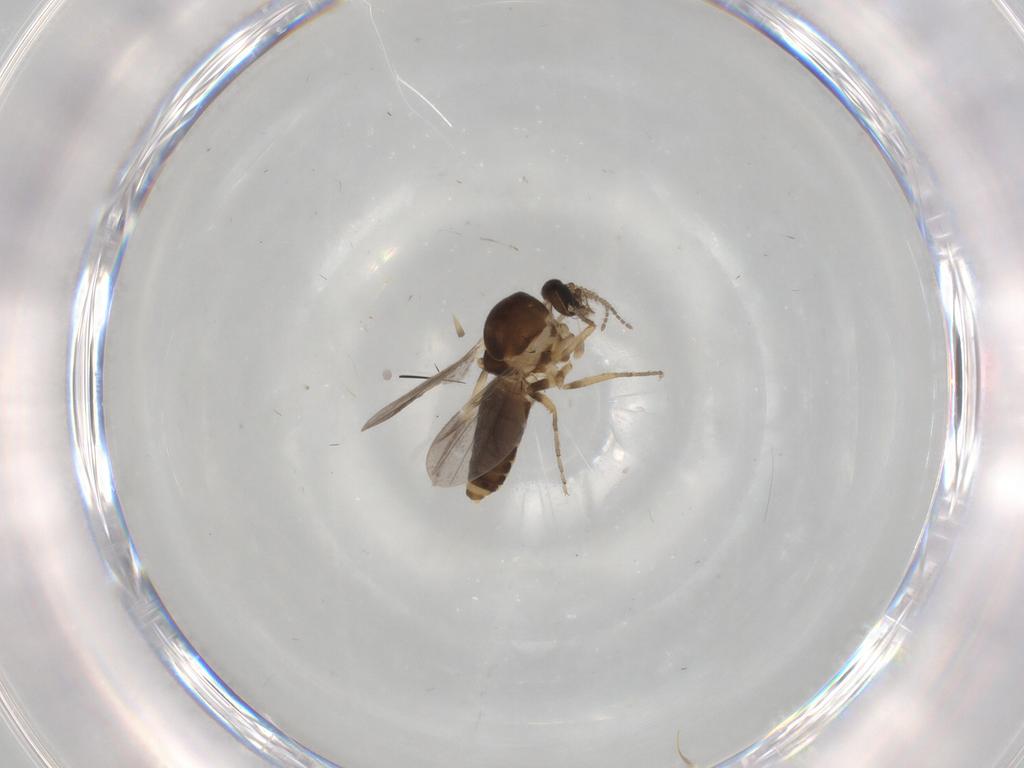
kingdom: Animalia
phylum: Arthropoda
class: Insecta
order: Diptera
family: Ceratopogonidae
